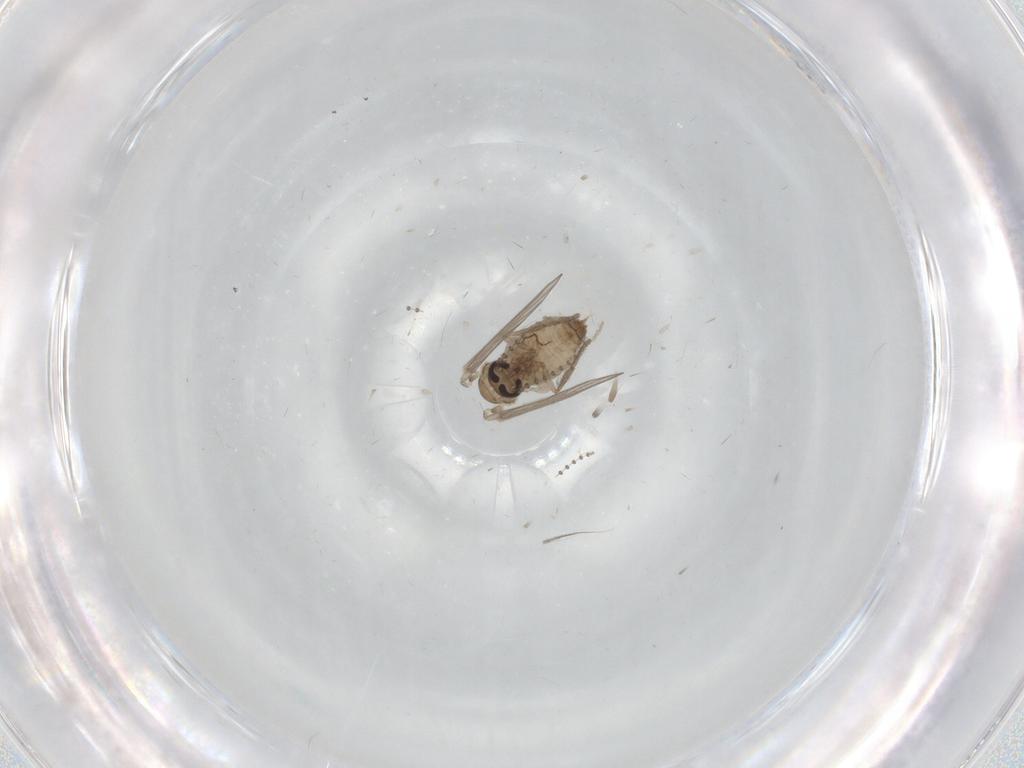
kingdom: Animalia
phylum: Arthropoda
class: Insecta
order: Diptera
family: Psychodidae
